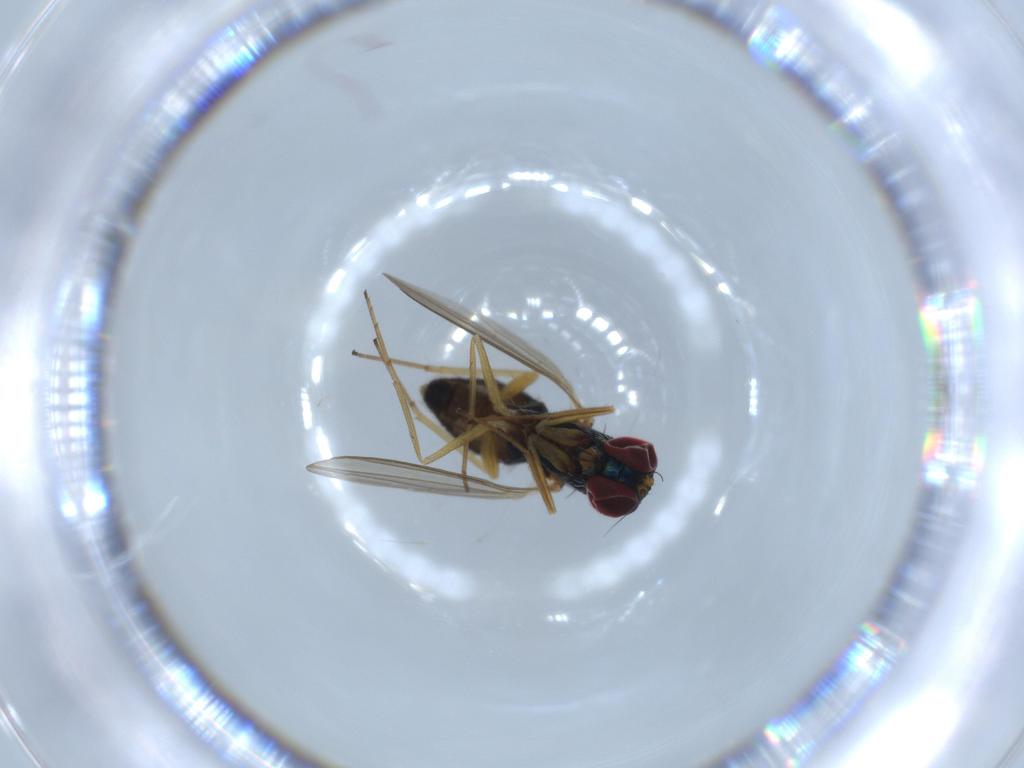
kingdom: Animalia
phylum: Arthropoda
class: Insecta
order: Diptera
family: Dolichopodidae
